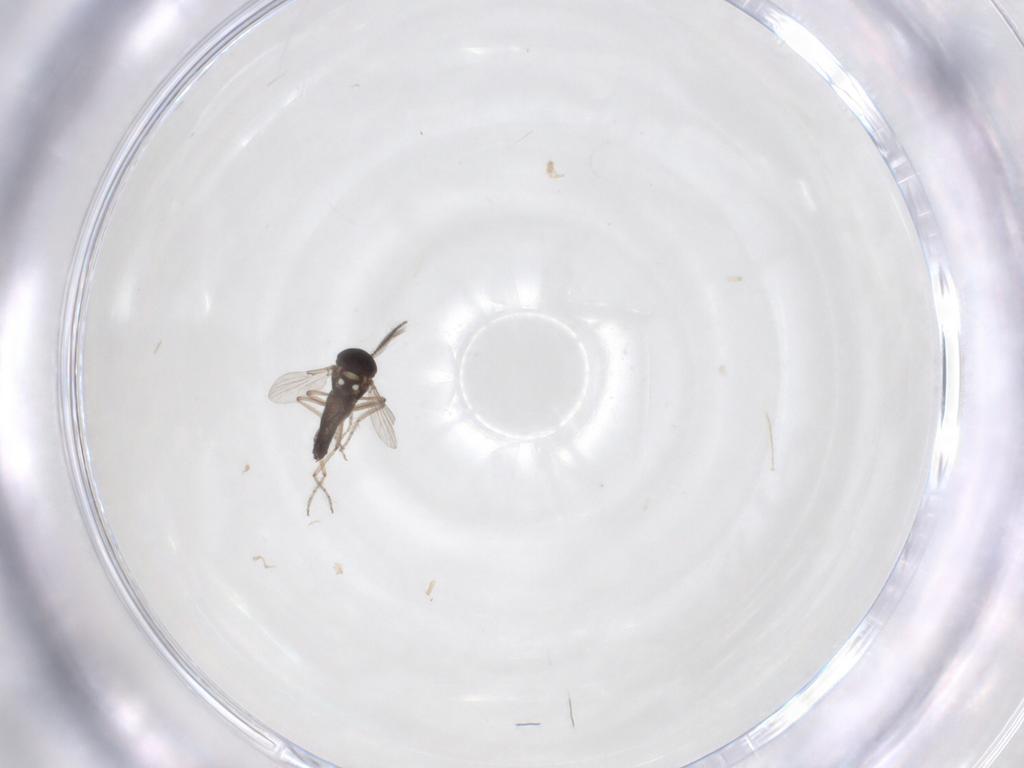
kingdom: Animalia
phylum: Arthropoda
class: Insecta
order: Diptera
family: Ceratopogonidae
